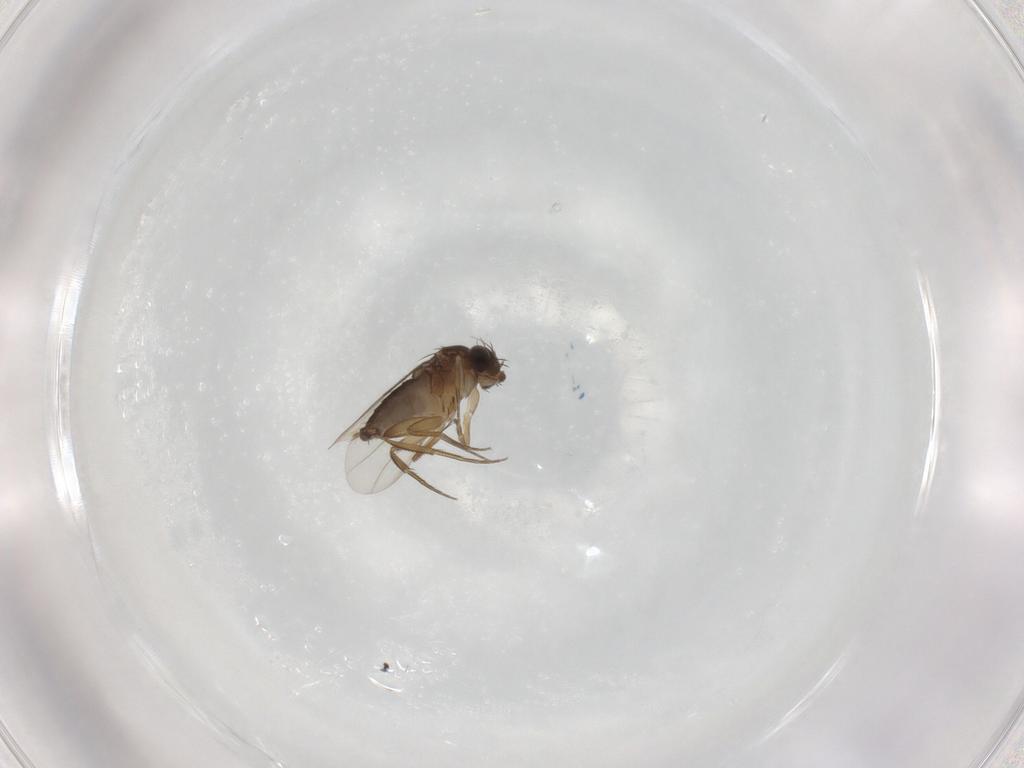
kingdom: Animalia
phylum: Arthropoda
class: Insecta
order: Diptera
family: Phoridae
